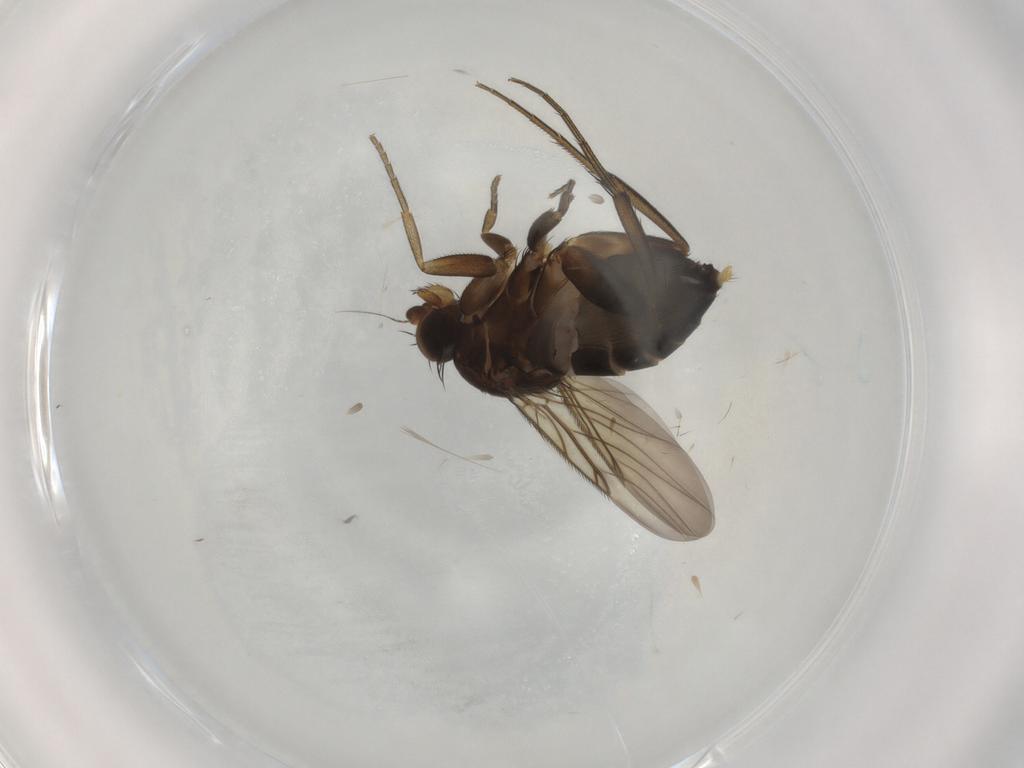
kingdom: Animalia
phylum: Arthropoda
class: Insecta
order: Diptera
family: Phoridae
